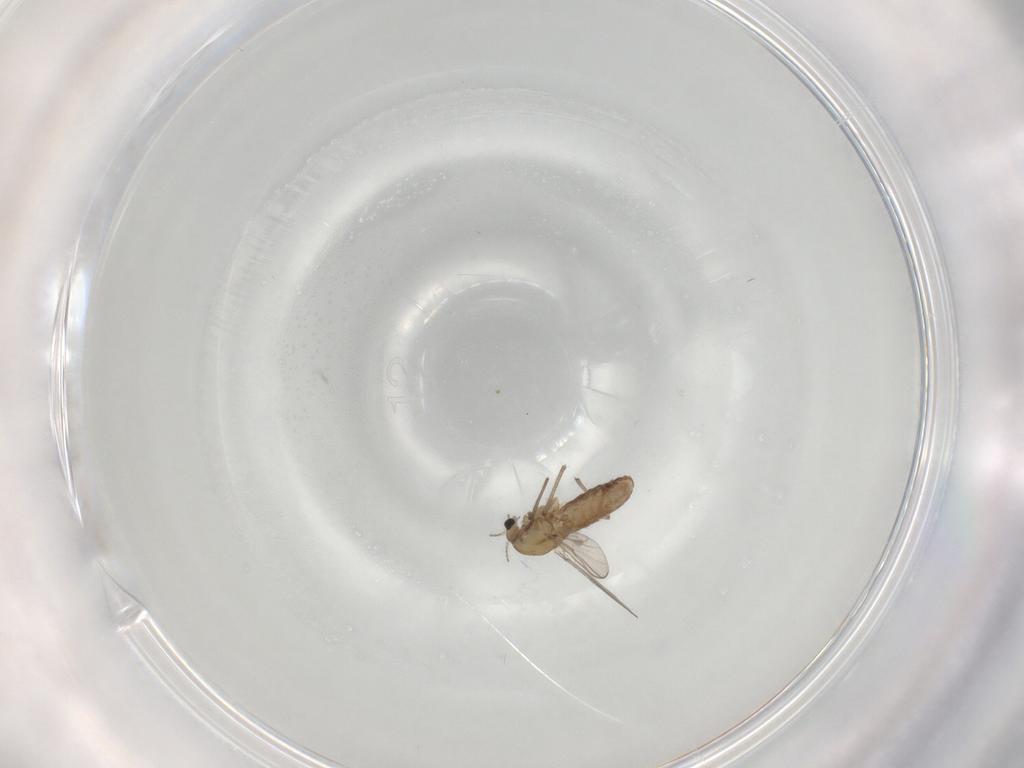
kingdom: Animalia
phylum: Arthropoda
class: Insecta
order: Diptera
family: Chironomidae
